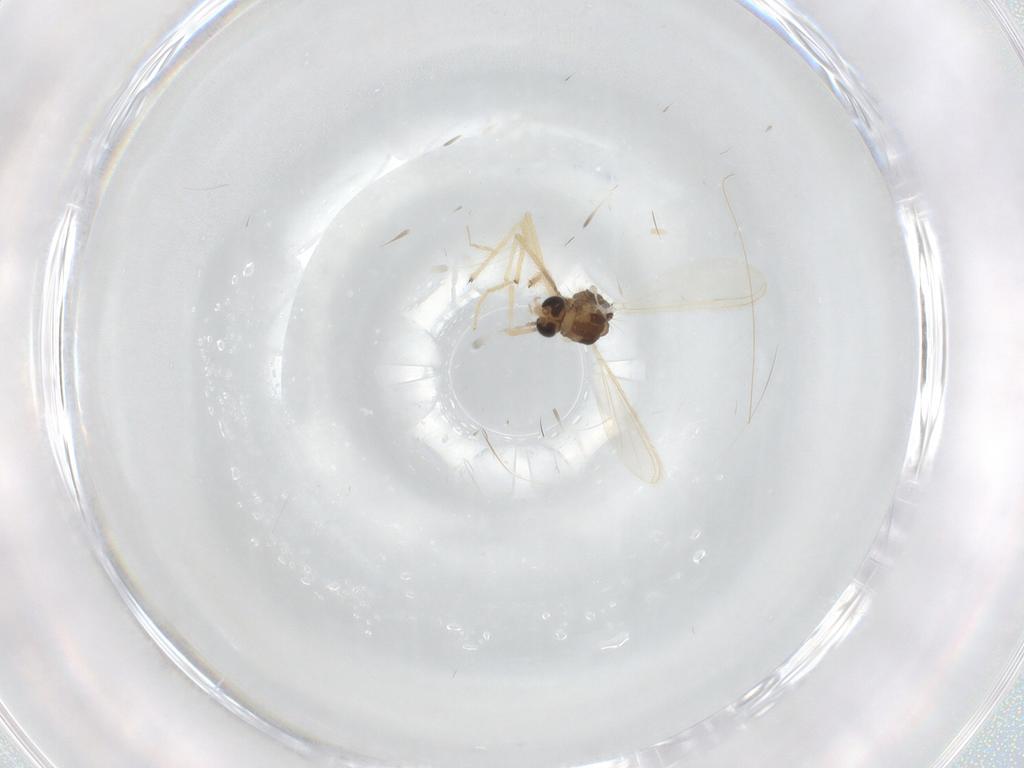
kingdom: Animalia
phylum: Arthropoda
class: Insecta
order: Diptera
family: Chironomidae
